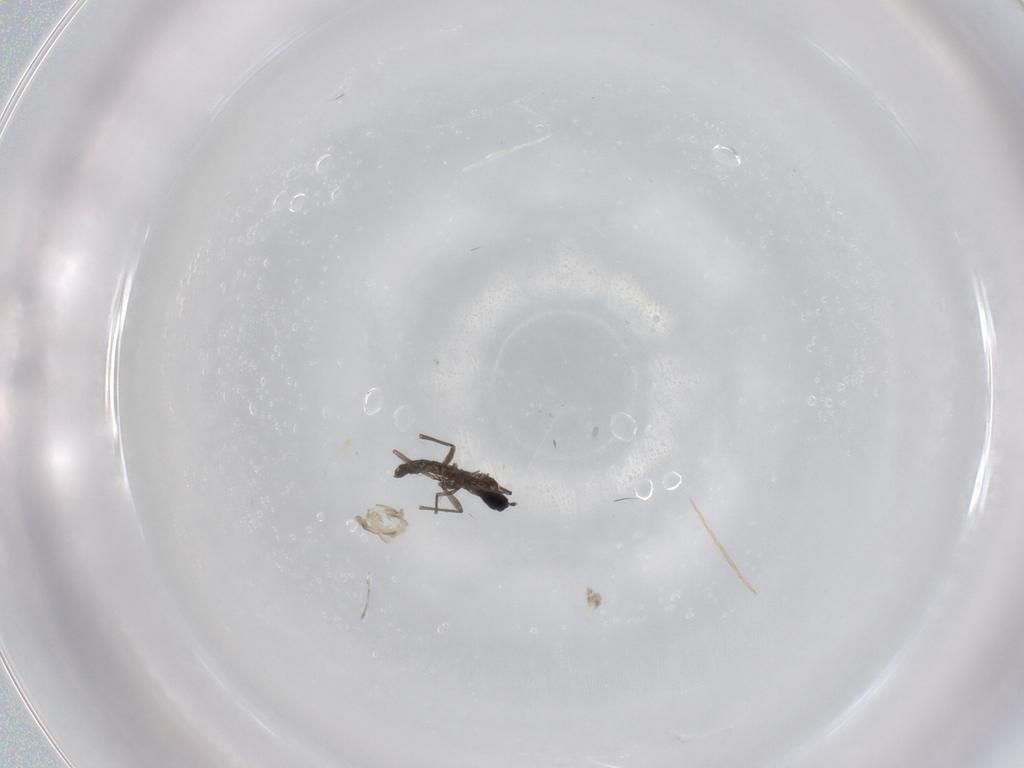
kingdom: Animalia
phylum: Arthropoda
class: Insecta
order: Diptera
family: Sciaridae
